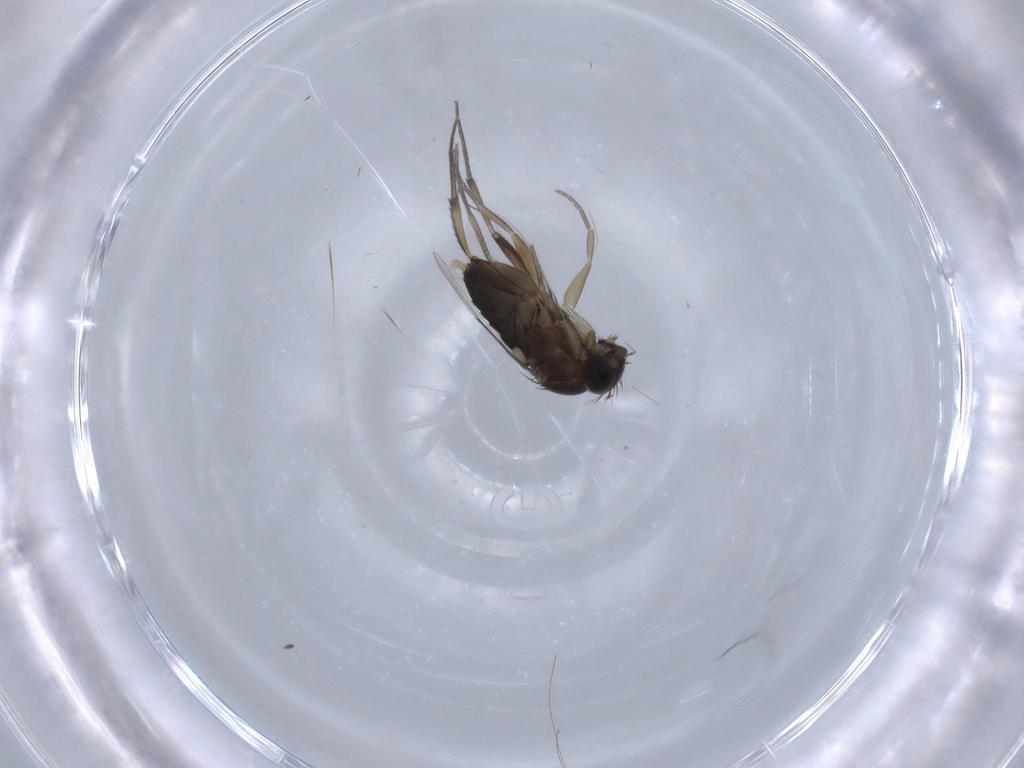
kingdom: Animalia
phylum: Arthropoda
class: Insecta
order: Diptera
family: Phoridae
